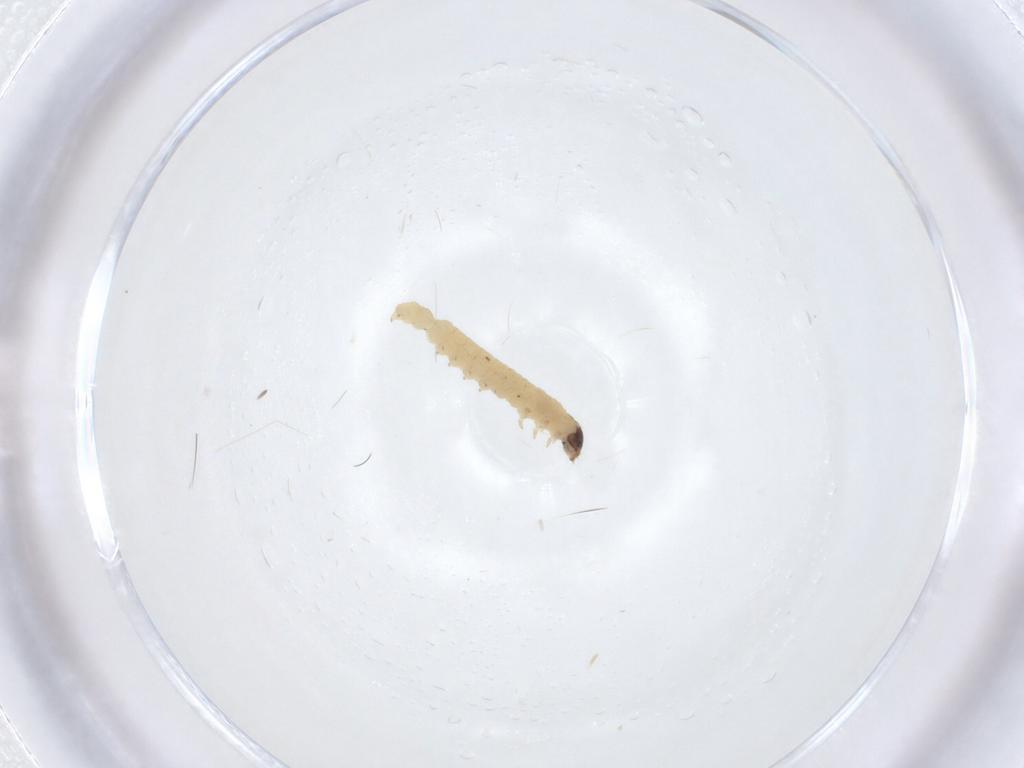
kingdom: Animalia
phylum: Arthropoda
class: Insecta
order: Lepidoptera
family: Tortricidae
